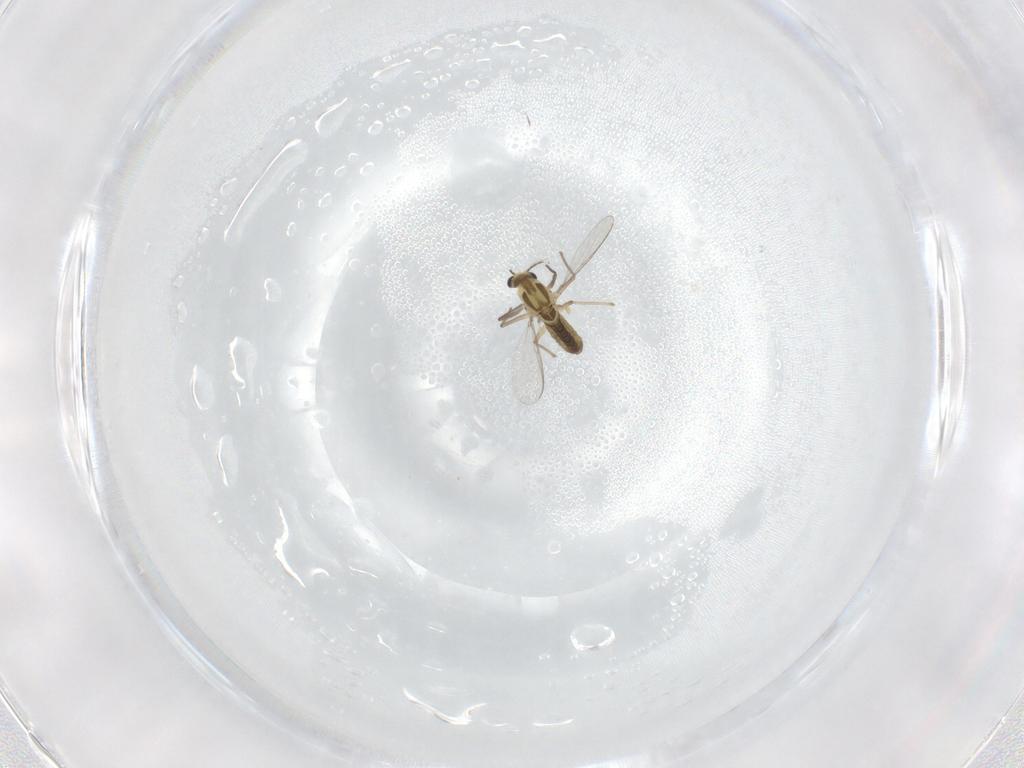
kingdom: Animalia
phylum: Arthropoda
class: Insecta
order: Diptera
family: Chironomidae
